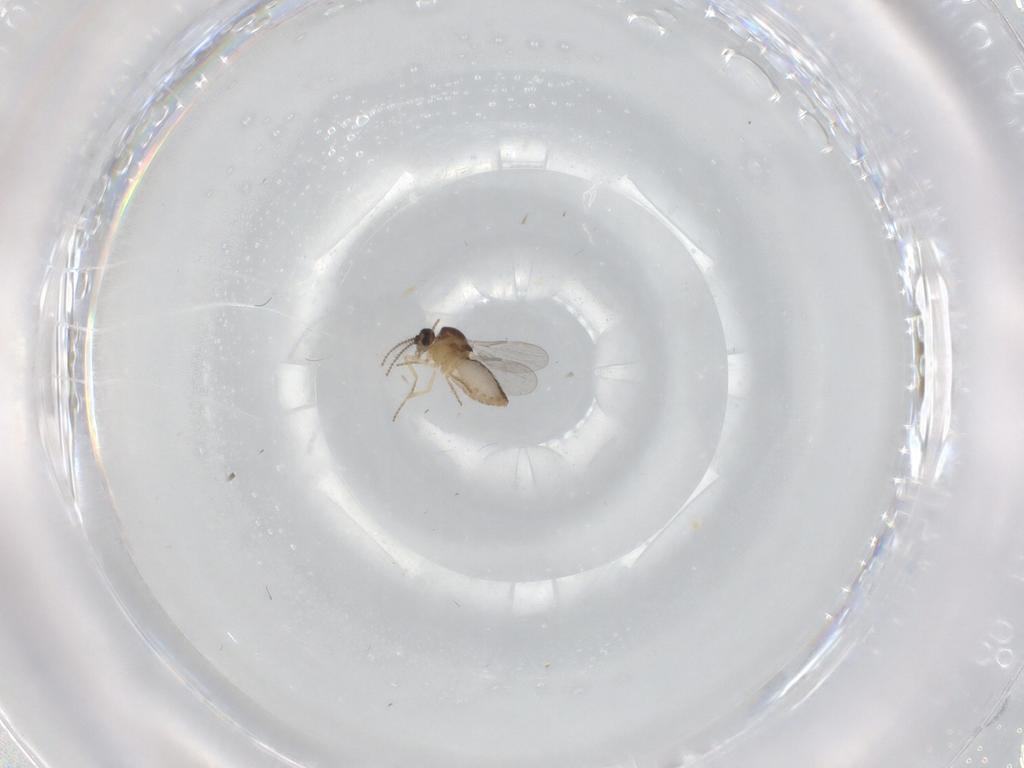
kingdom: Animalia
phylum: Arthropoda
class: Insecta
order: Diptera
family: Ceratopogonidae
